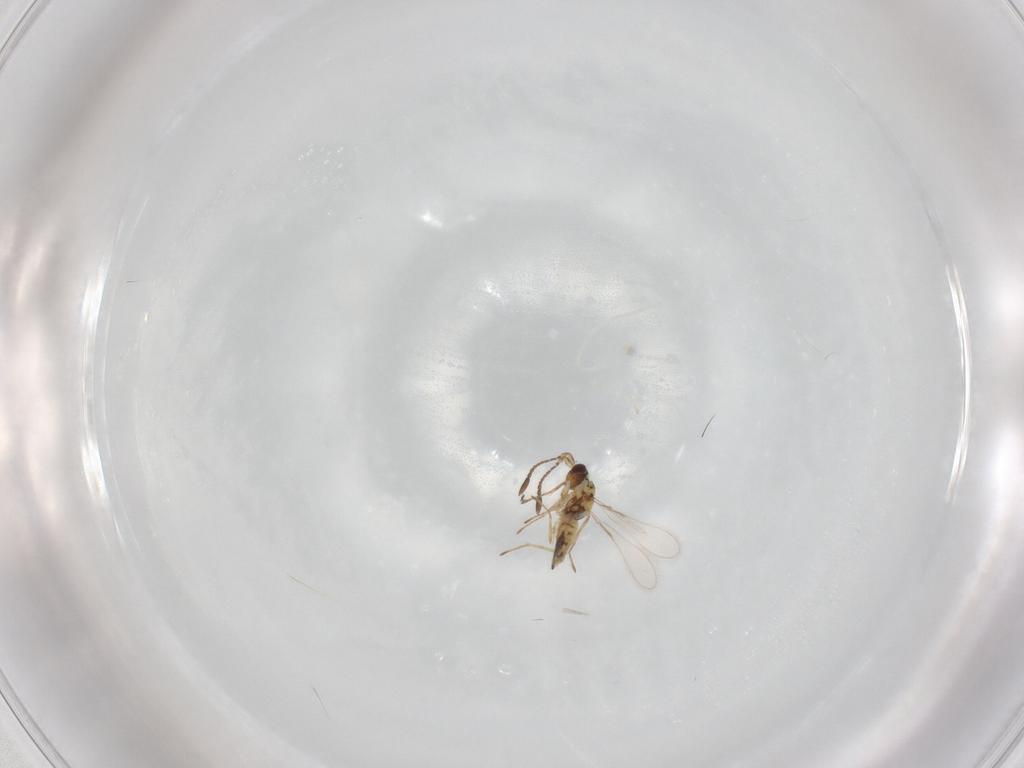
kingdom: Animalia
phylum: Arthropoda
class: Insecta
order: Hymenoptera
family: Mymaridae
